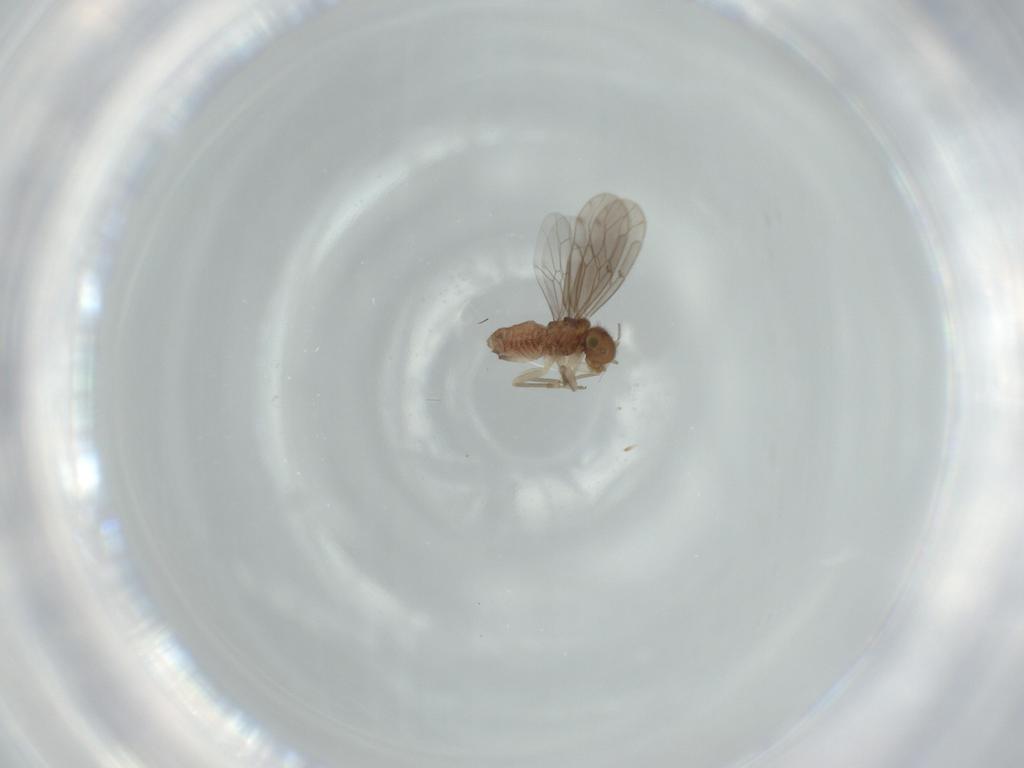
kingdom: Animalia
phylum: Arthropoda
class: Insecta
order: Psocodea
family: Ectopsocidae
